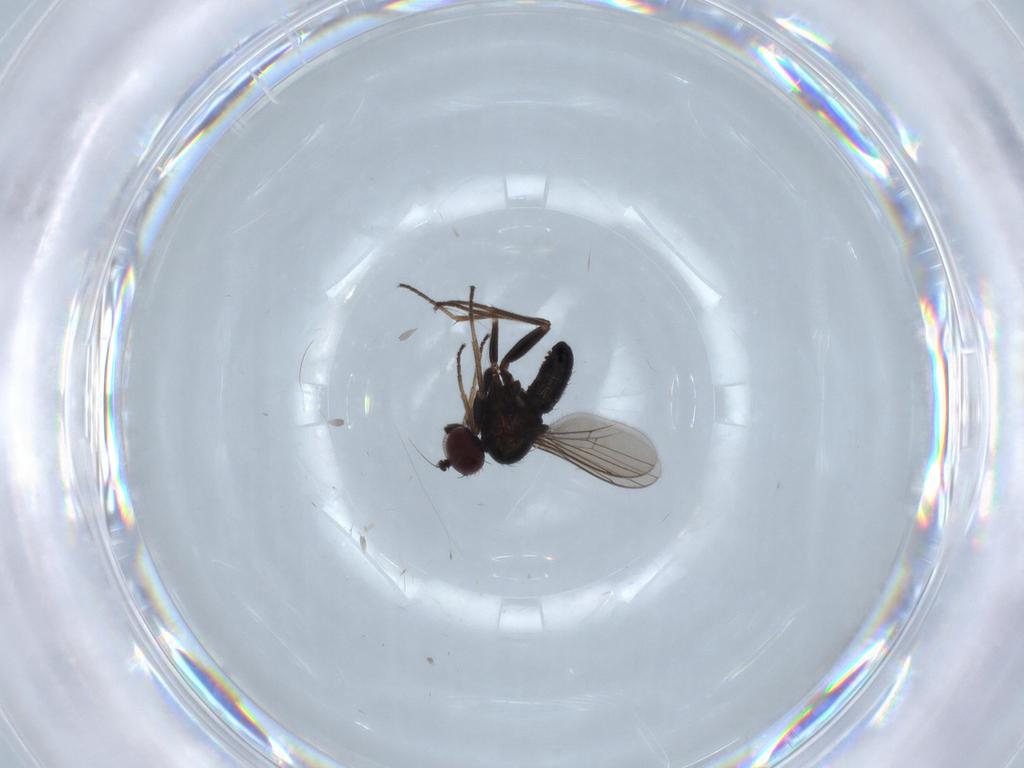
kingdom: Animalia
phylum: Arthropoda
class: Insecta
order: Diptera
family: Dolichopodidae
